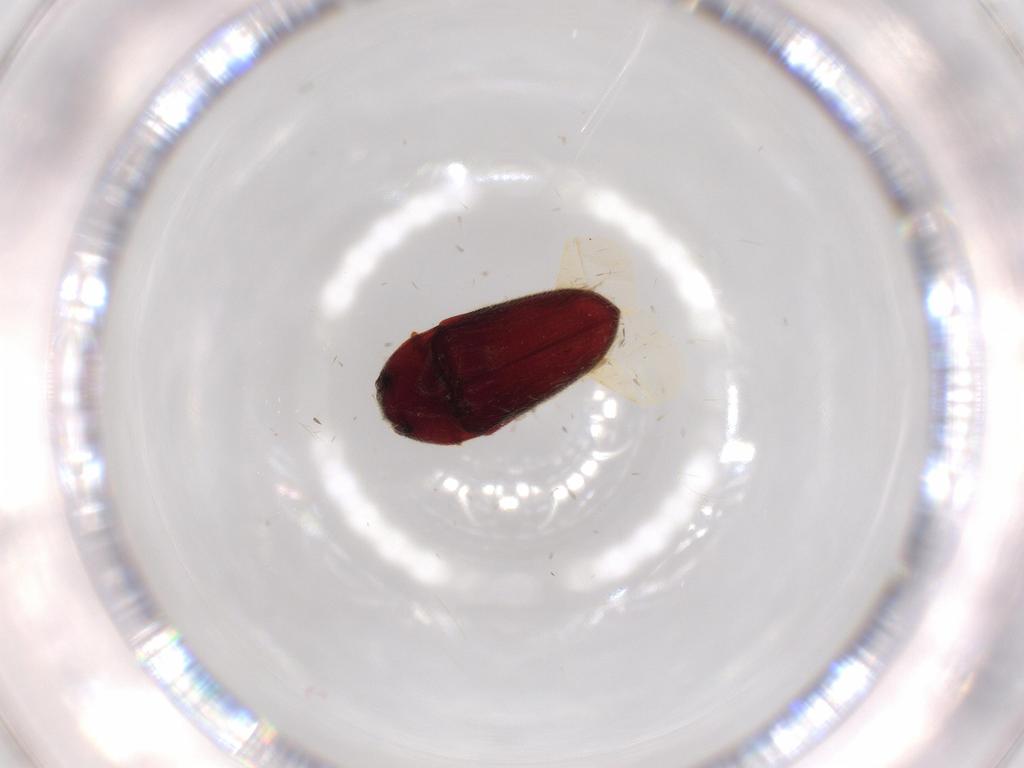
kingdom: Animalia
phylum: Arthropoda
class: Insecta
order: Coleoptera
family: Throscidae
